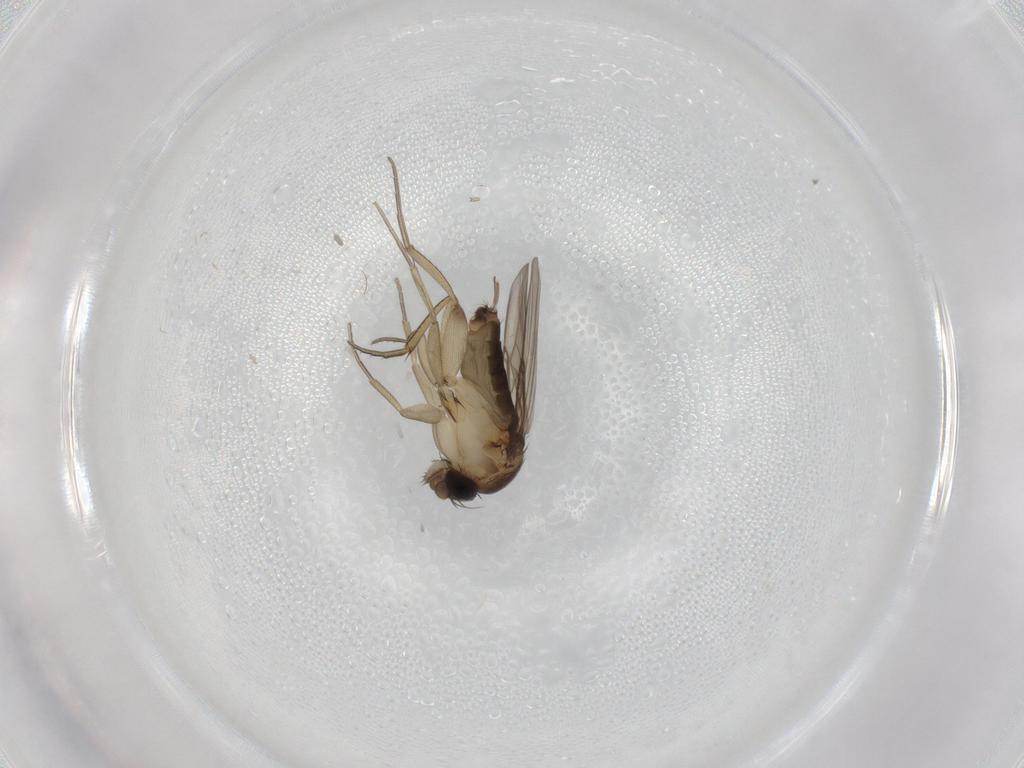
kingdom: Animalia
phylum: Arthropoda
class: Insecta
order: Diptera
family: Phoridae
